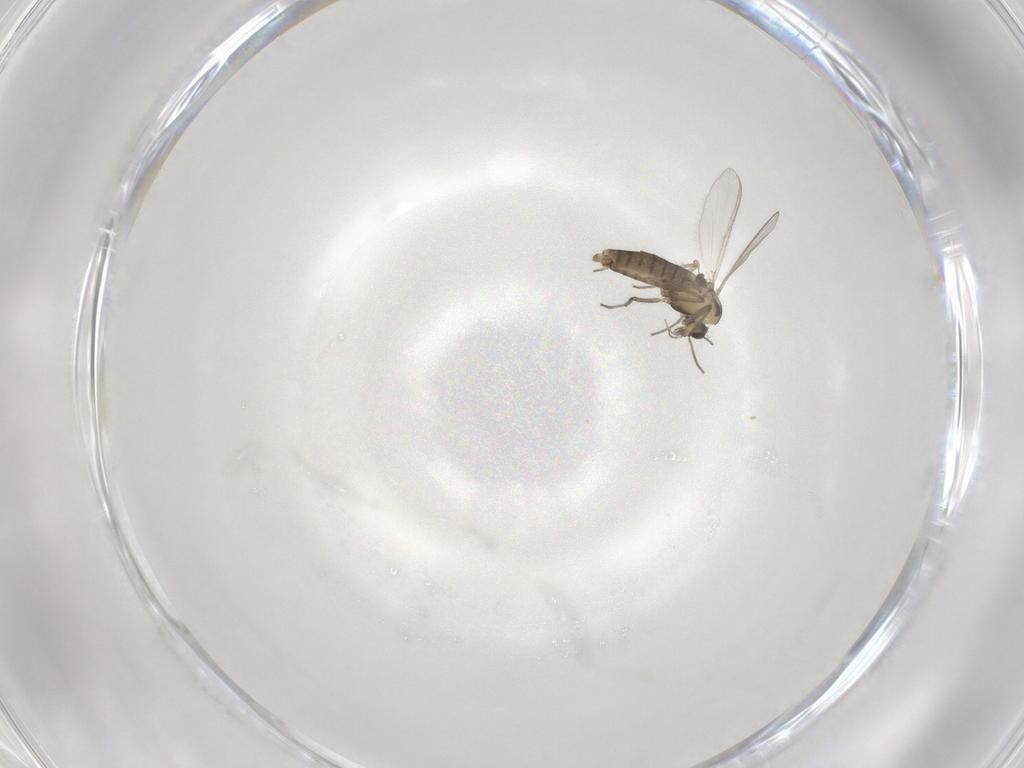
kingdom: Animalia
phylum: Arthropoda
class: Insecta
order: Diptera
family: Chironomidae
